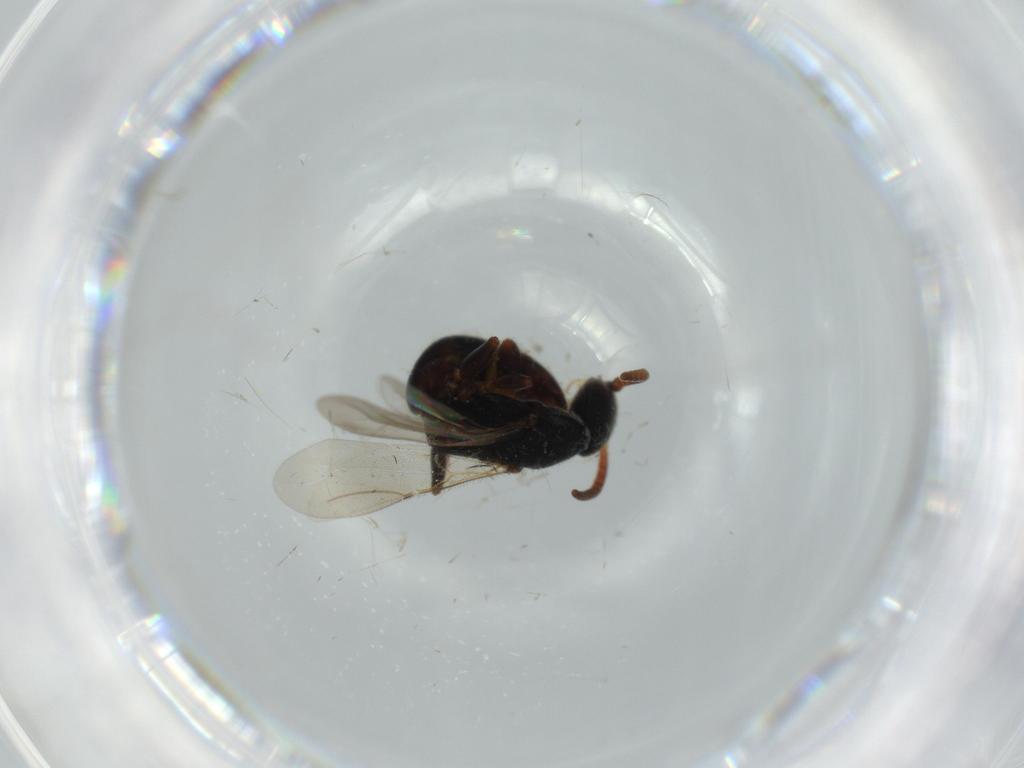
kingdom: Animalia
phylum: Arthropoda
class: Insecta
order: Hymenoptera
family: Bethylidae
